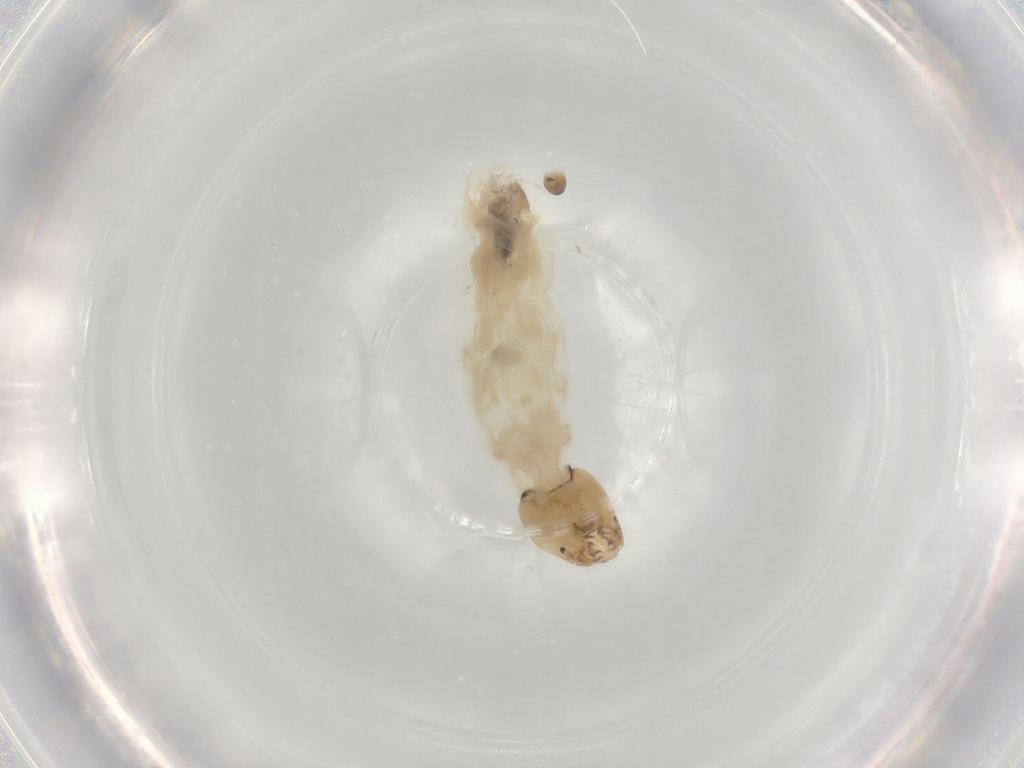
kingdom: Animalia
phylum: Arthropoda
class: Insecta
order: Diptera
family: Chironomidae
